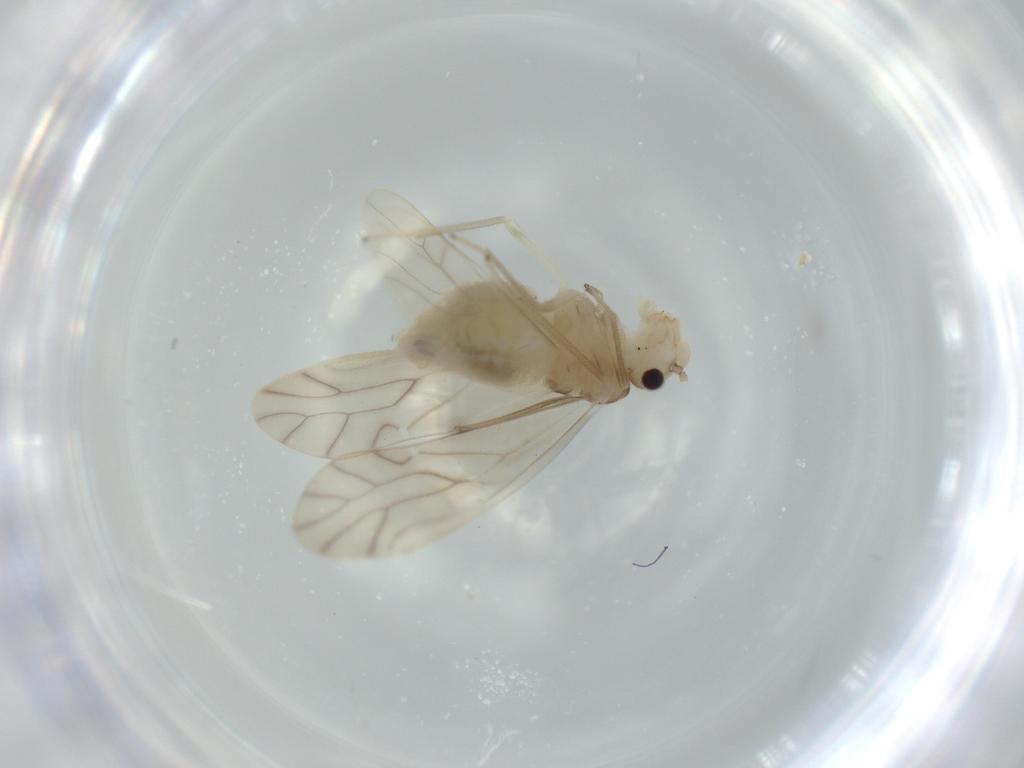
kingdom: Animalia
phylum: Arthropoda
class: Insecta
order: Psocodea
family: Caeciliusidae
